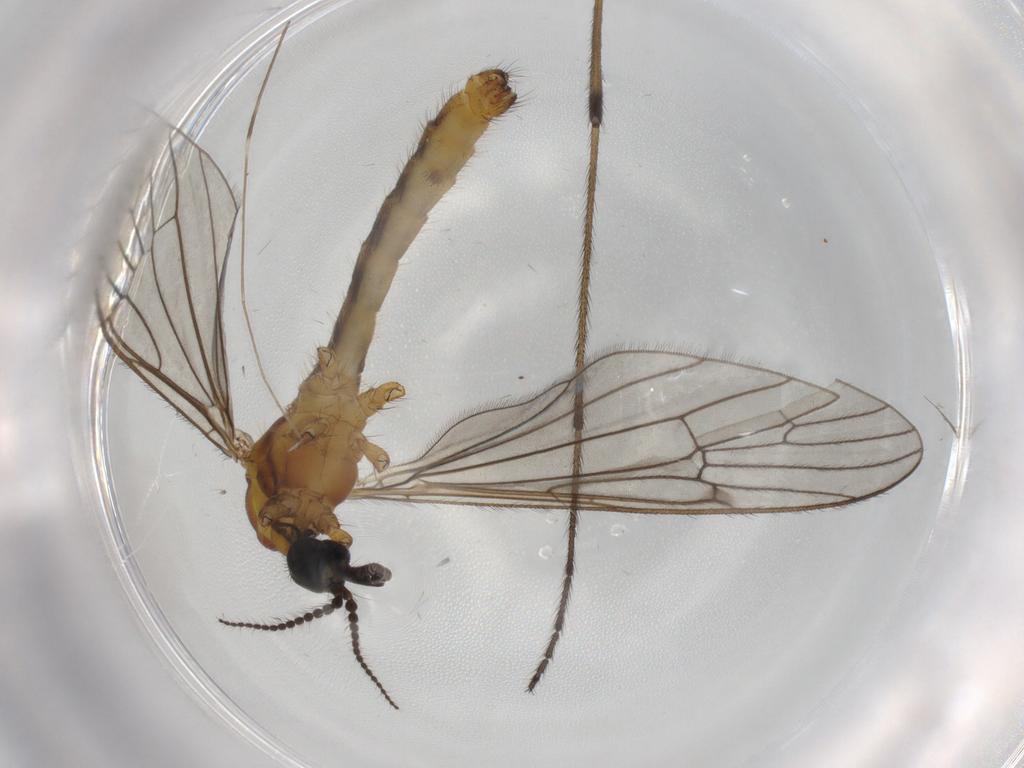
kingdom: Animalia
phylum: Arthropoda
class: Insecta
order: Diptera
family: Limoniidae
